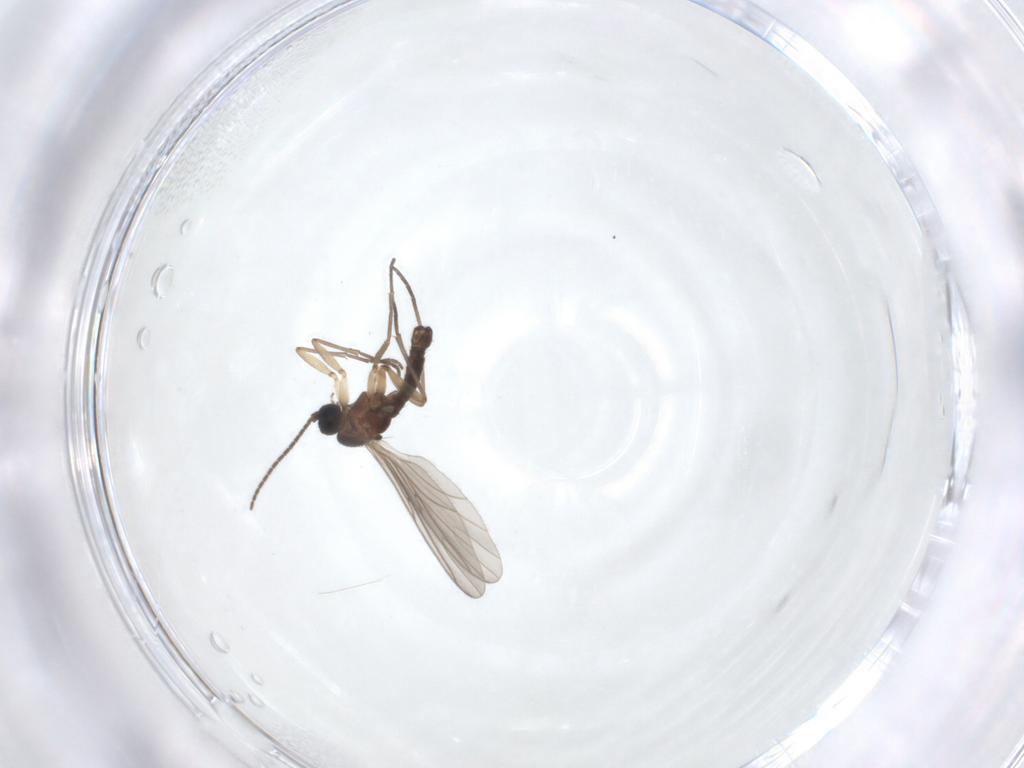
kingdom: Animalia
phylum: Arthropoda
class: Insecta
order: Diptera
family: Sciaridae
